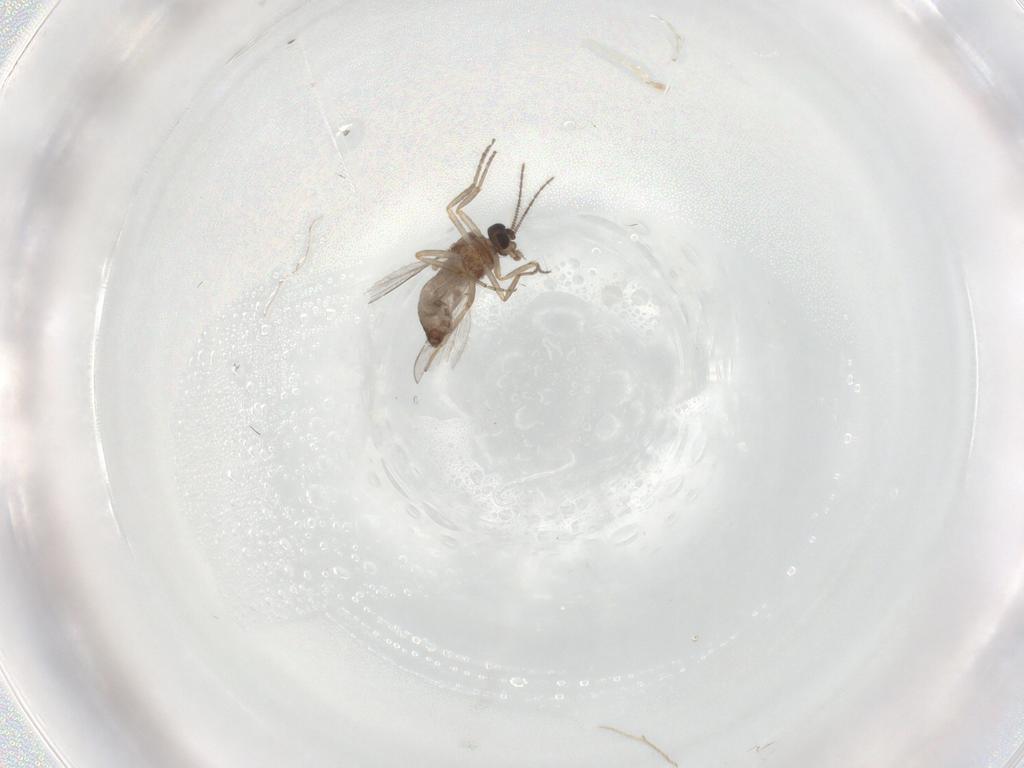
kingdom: Animalia
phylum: Arthropoda
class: Insecta
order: Diptera
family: Ceratopogonidae
